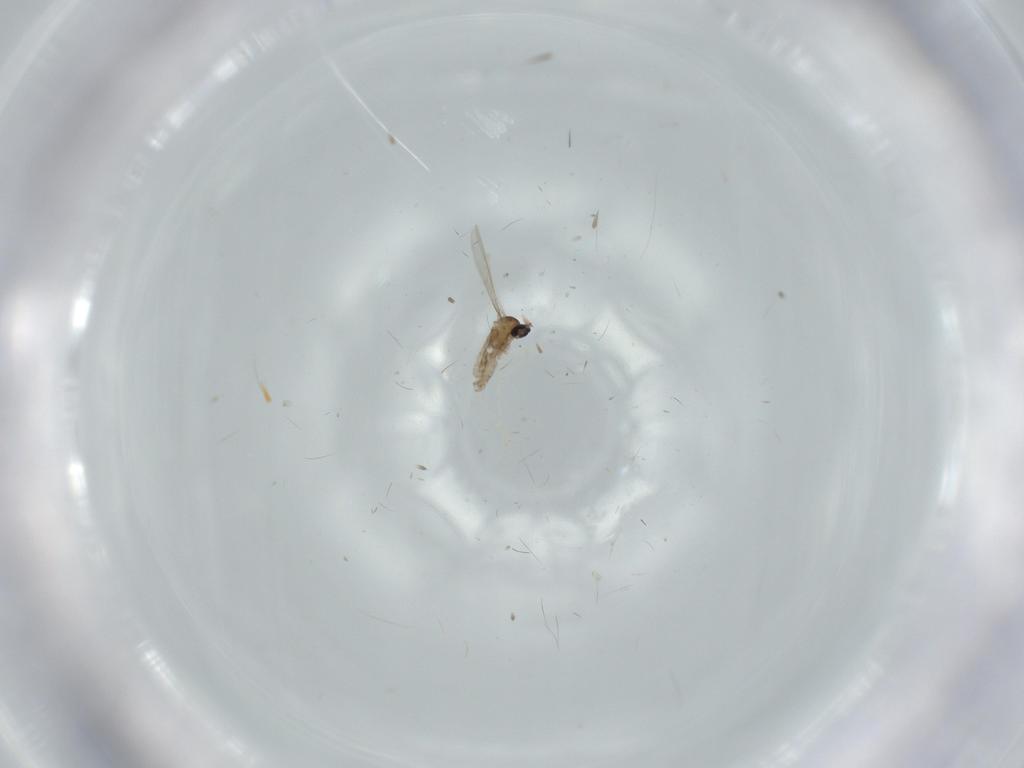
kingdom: Animalia
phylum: Arthropoda
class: Insecta
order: Diptera
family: Cecidomyiidae
